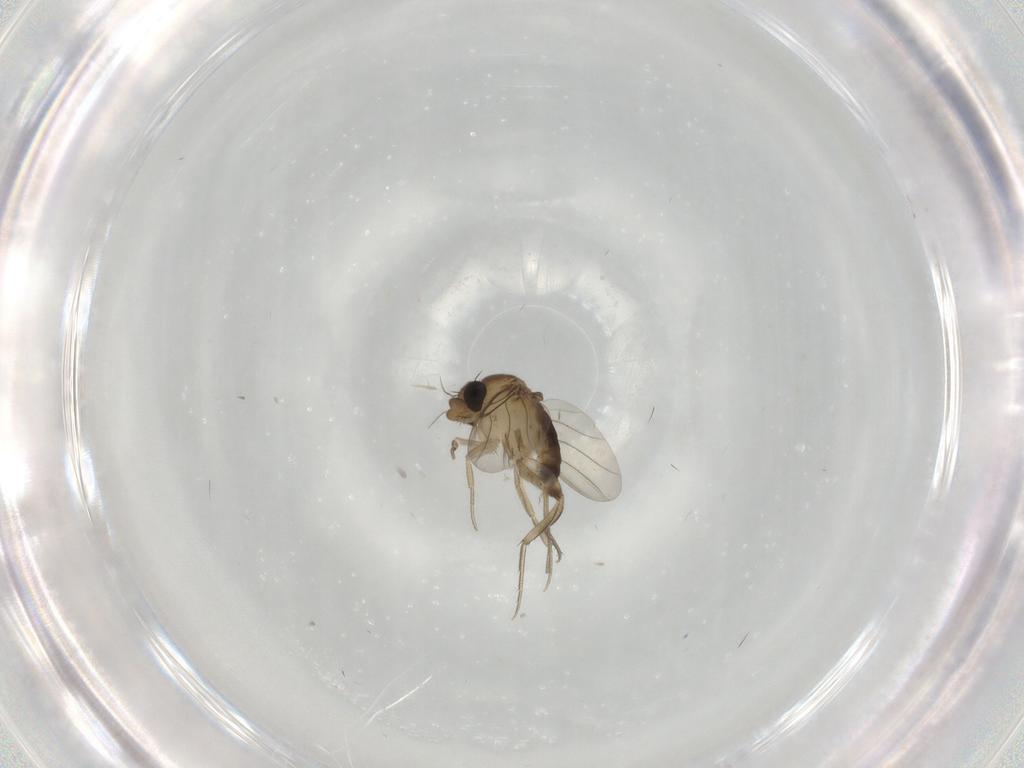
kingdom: Animalia
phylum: Arthropoda
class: Insecta
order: Diptera
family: Phoridae
